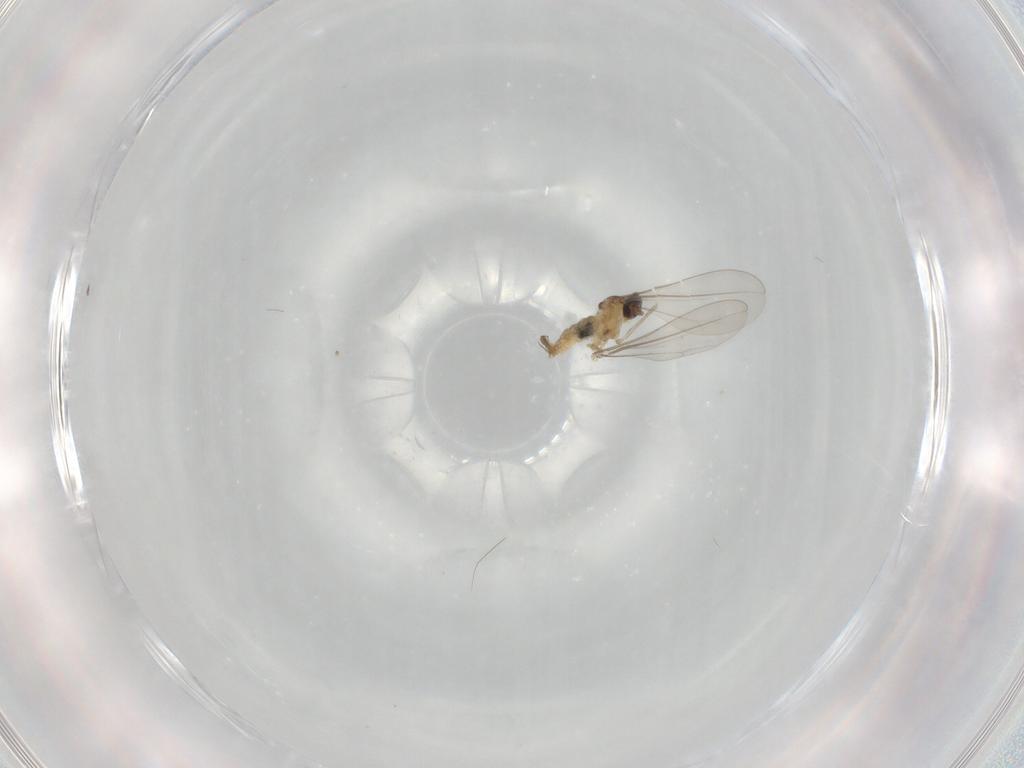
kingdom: Animalia
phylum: Arthropoda
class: Insecta
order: Diptera
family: Cecidomyiidae
